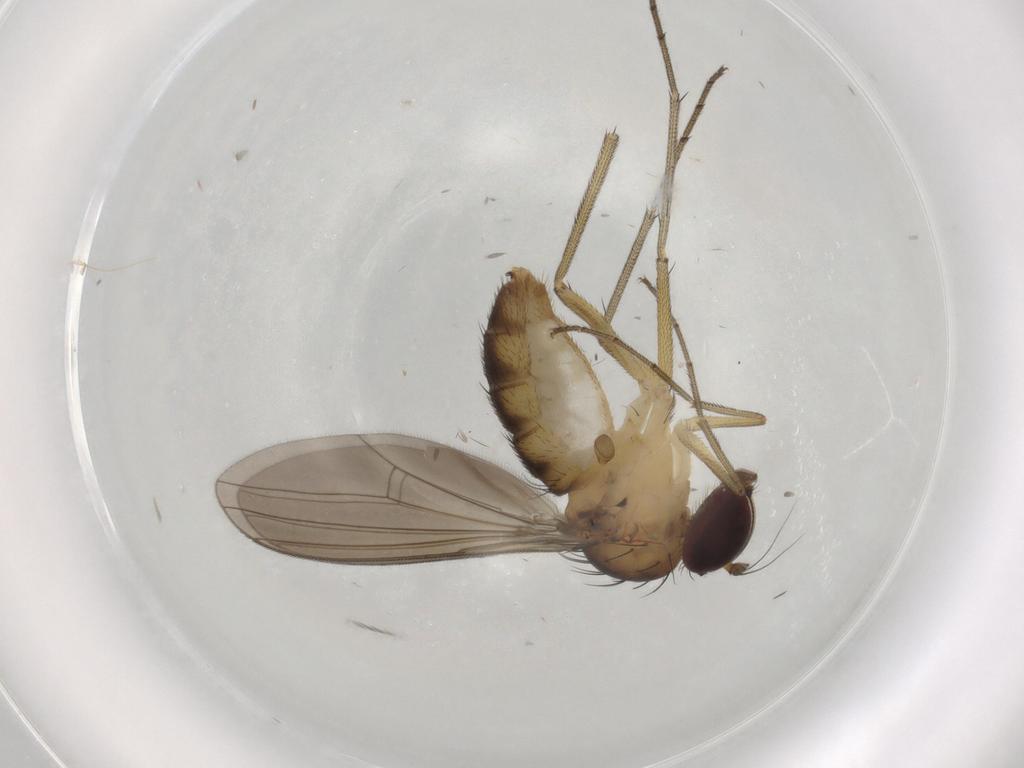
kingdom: Animalia
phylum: Arthropoda
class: Insecta
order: Diptera
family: Dolichopodidae
